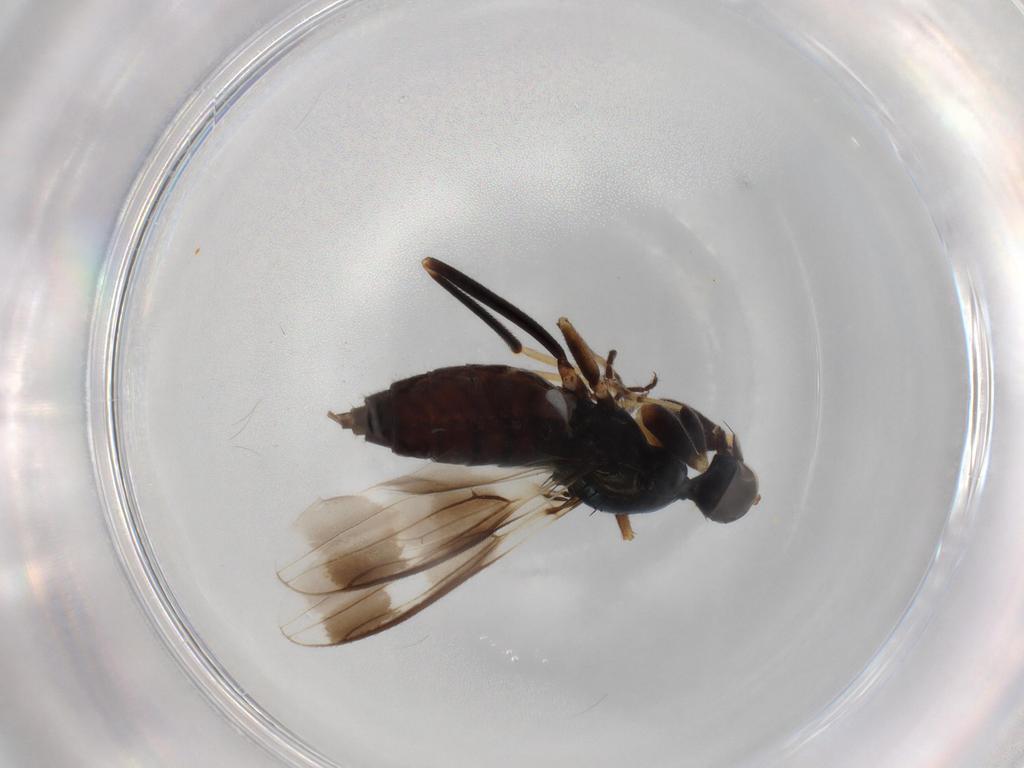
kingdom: Animalia
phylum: Arthropoda
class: Insecta
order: Diptera
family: Hybotidae
